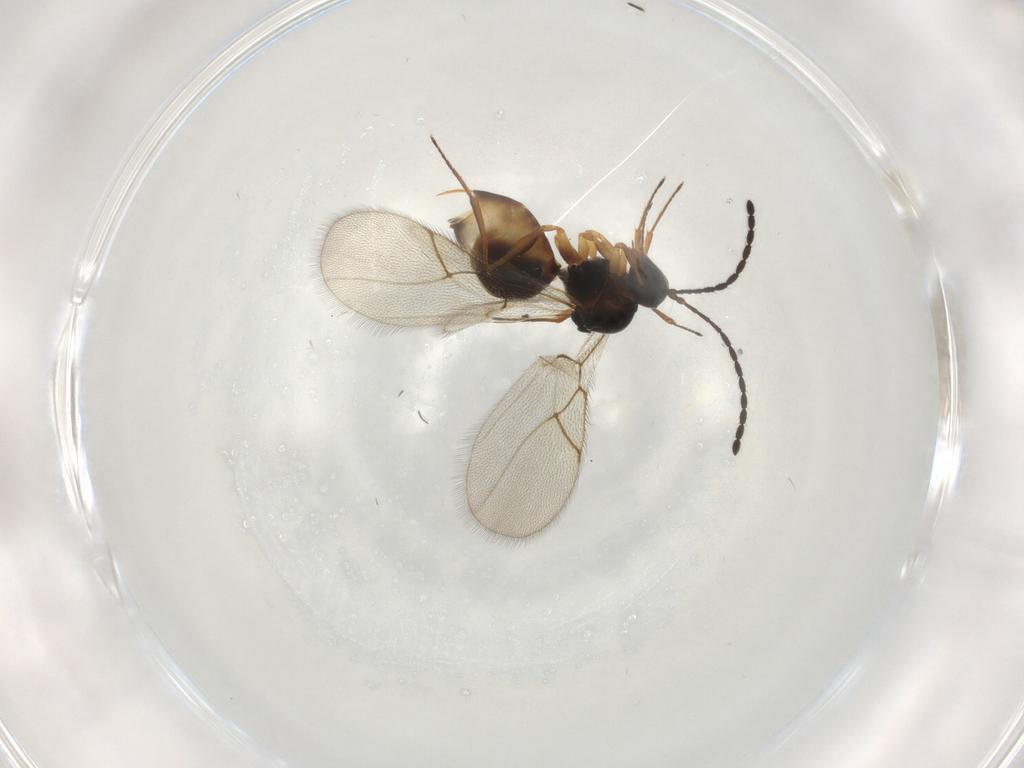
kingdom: Animalia
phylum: Arthropoda
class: Insecta
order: Hymenoptera
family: Figitidae
